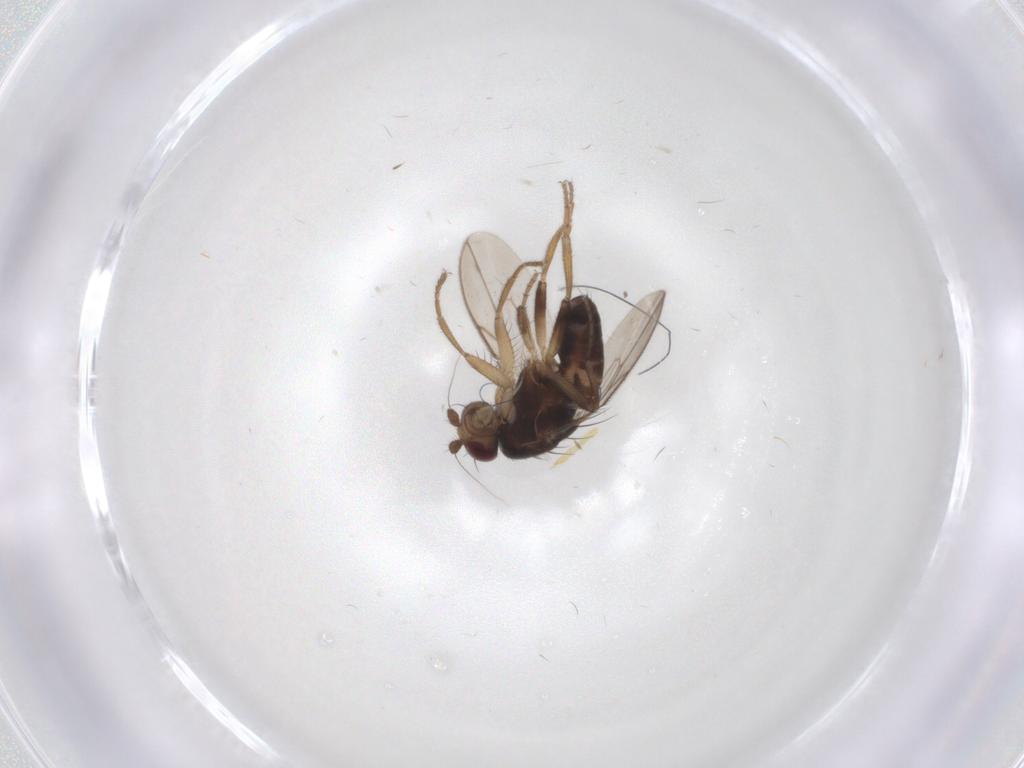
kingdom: Animalia
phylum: Arthropoda
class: Insecta
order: Diptera
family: Sphaeroceridae
